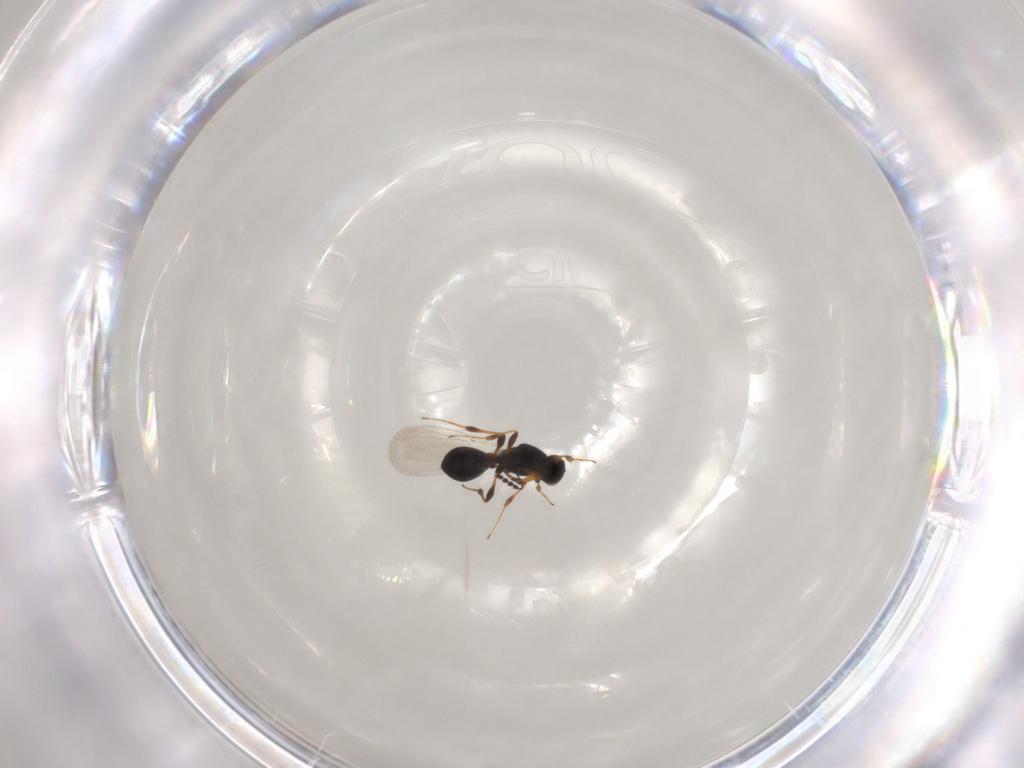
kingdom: Animalia
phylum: Arthropoda
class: Insecta
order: Hymenoptera
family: Platygastridae
